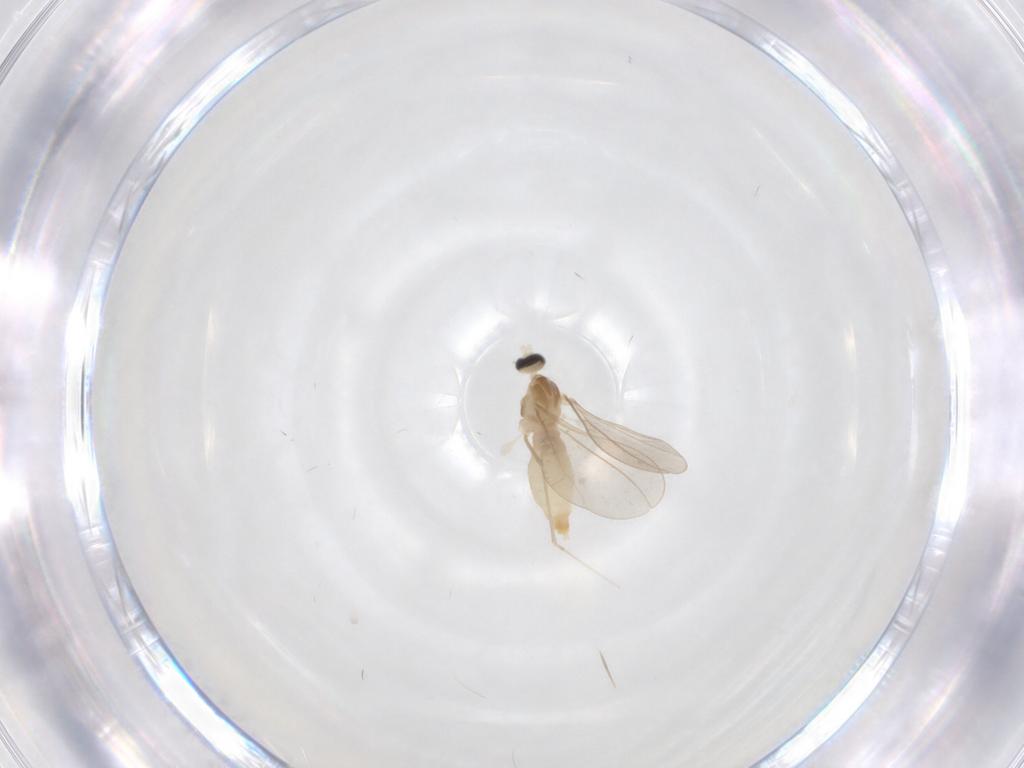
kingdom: Animalia
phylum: Arthropoda
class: Insecta
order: Diptera
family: Cecidomyiidae
